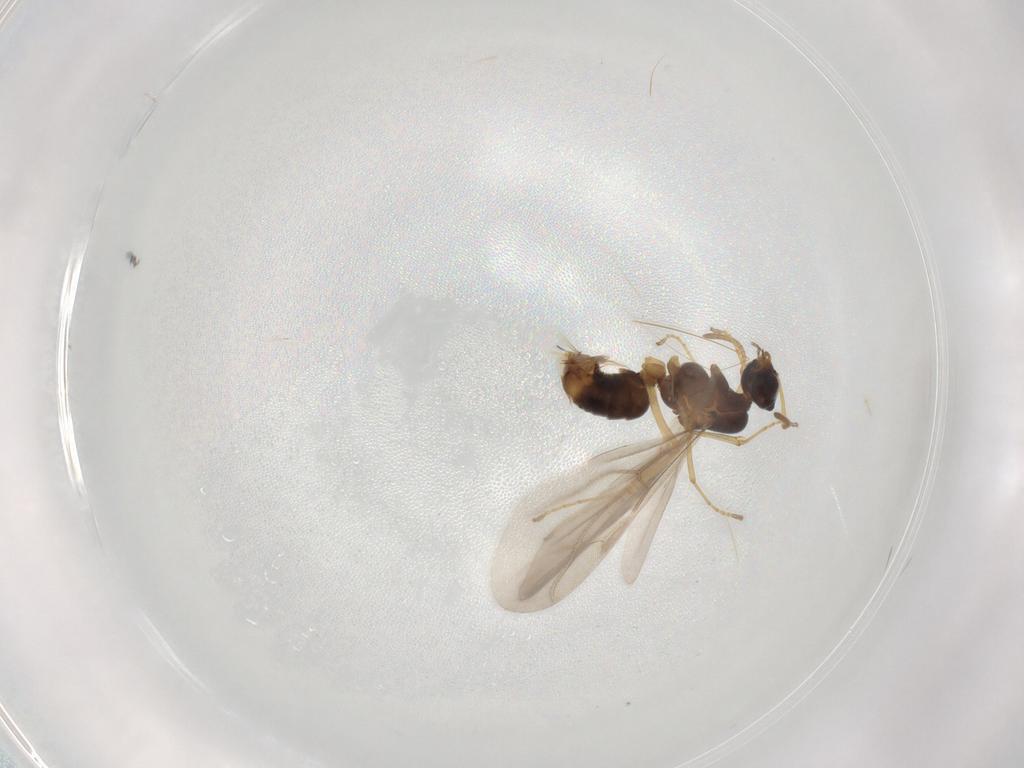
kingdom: Animalia
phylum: Arthropoda
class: Insecta
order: Hymenoptera
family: Formicidae
